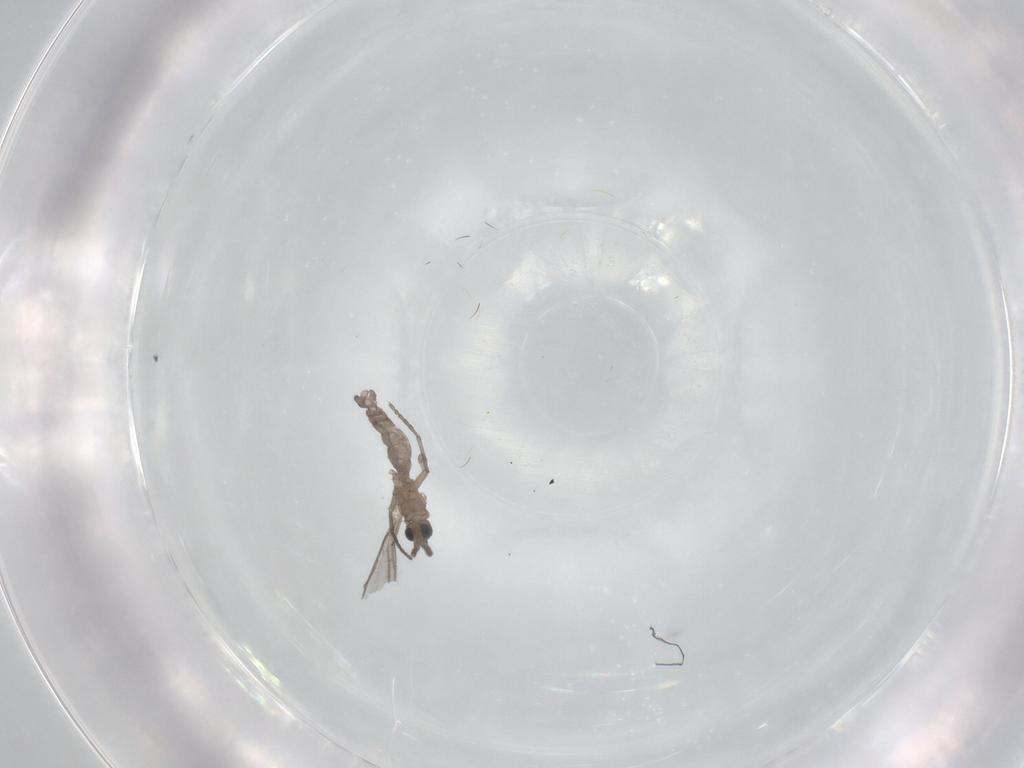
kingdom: Animalia
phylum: Arthropoda
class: Insecta
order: Diptera
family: Sciaridae
